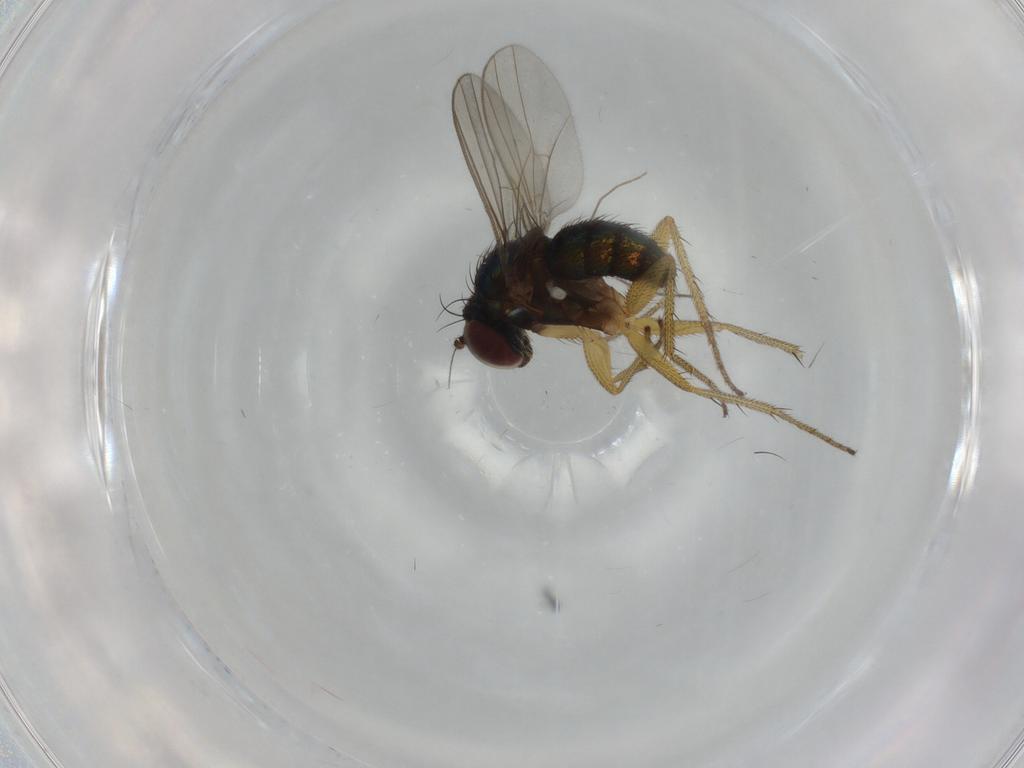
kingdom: Animalia
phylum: Arthropoda
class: Insecta
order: Diptera
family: Dolichopodidae
